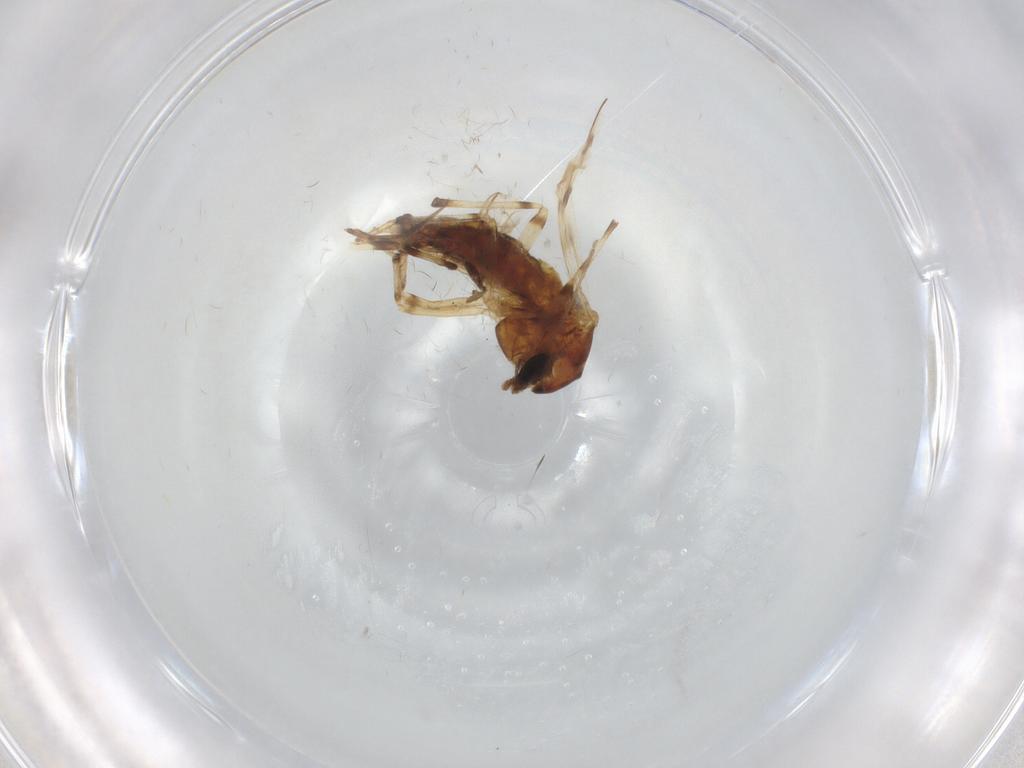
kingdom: Animalia
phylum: Arthropoda
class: Insecta
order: Diptera
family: Chironomidae
